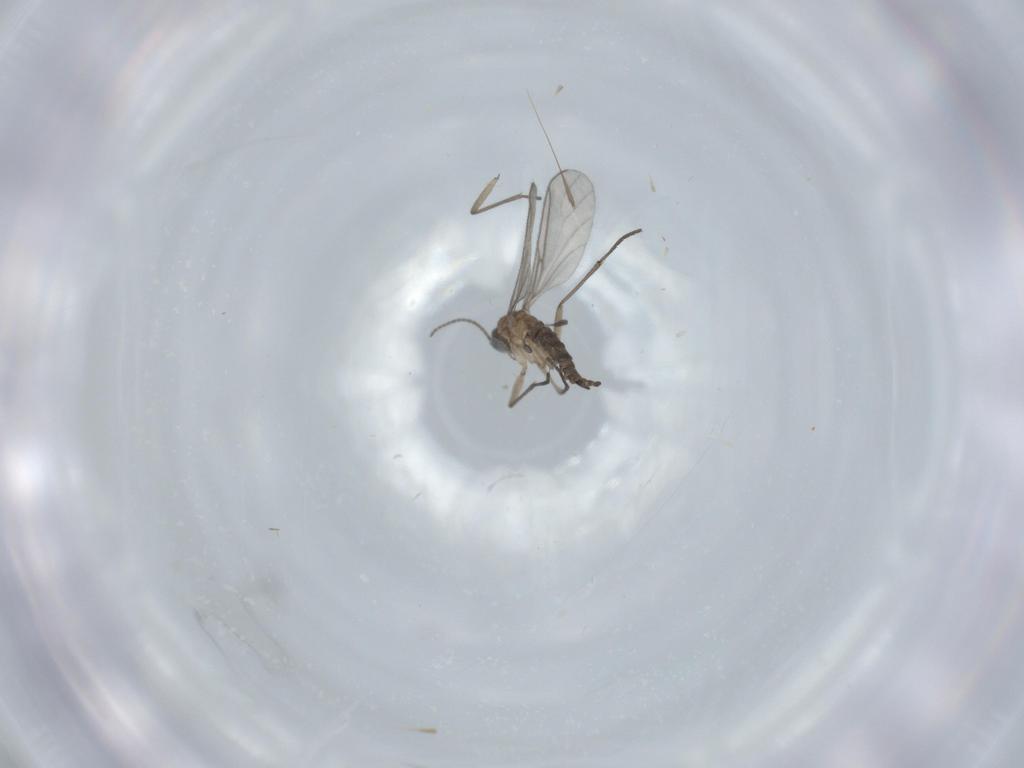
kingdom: Animalia
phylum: Arthropoda
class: Insecta
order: Diptera
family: Sciaridae
